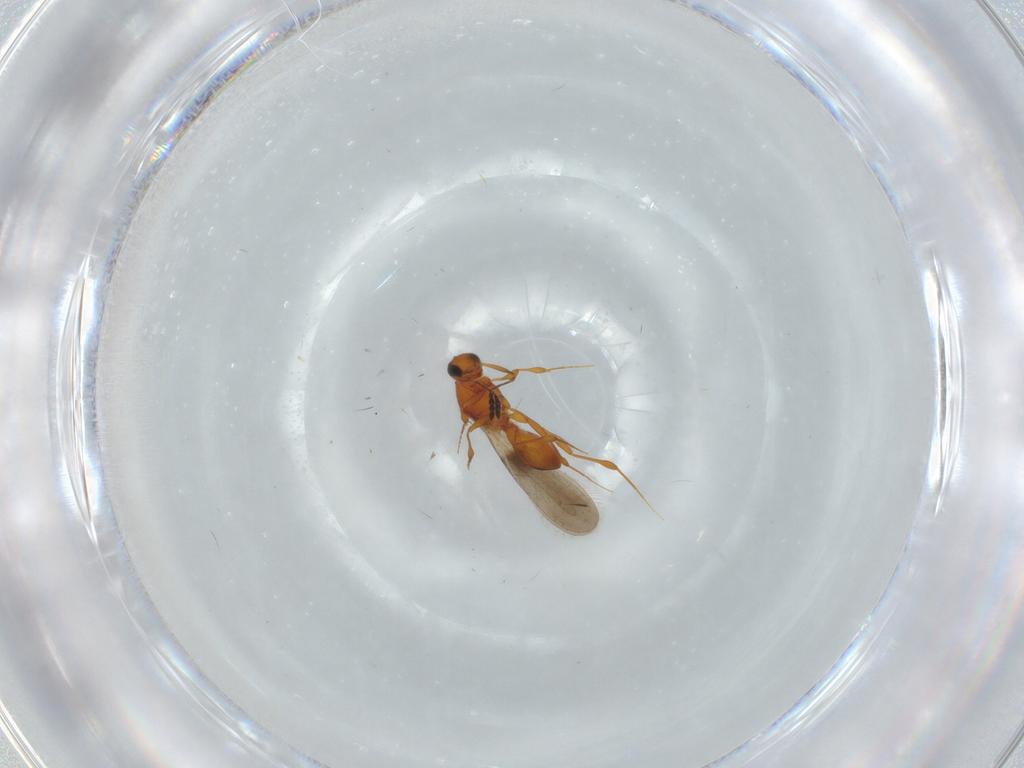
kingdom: Animalia
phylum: Arthropoda
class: Insecta
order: Hymenoptera
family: Platygastridae
